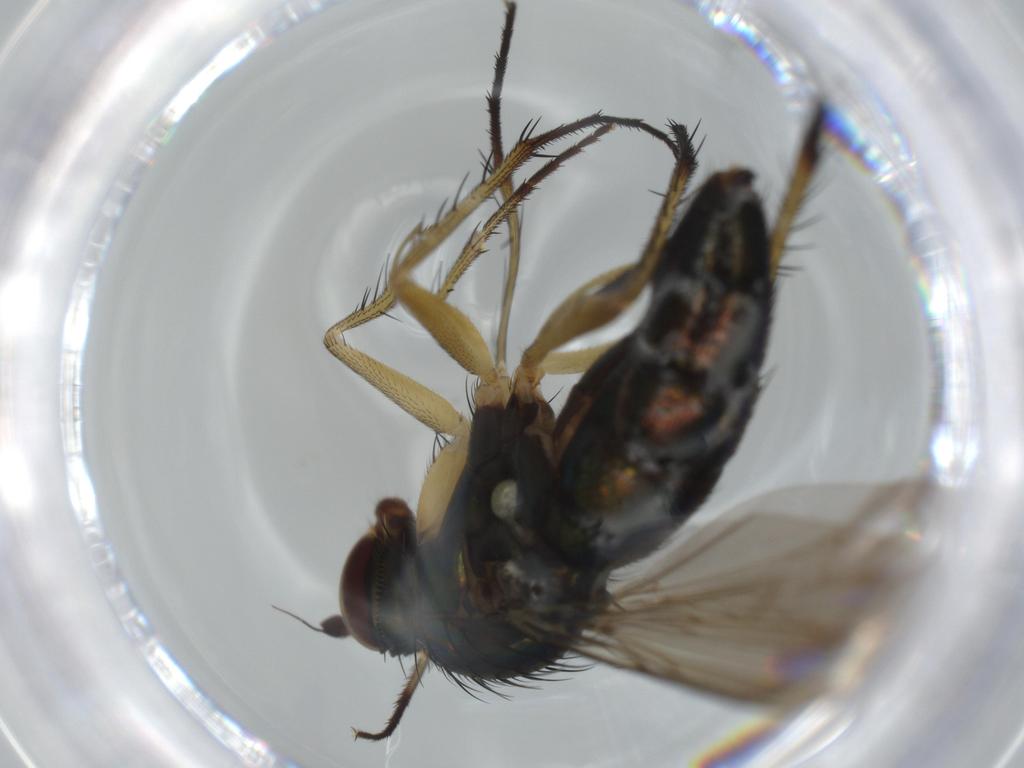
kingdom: Animalia
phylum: Arthropoda
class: Insecta
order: Diptera
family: Dolichopodidae
